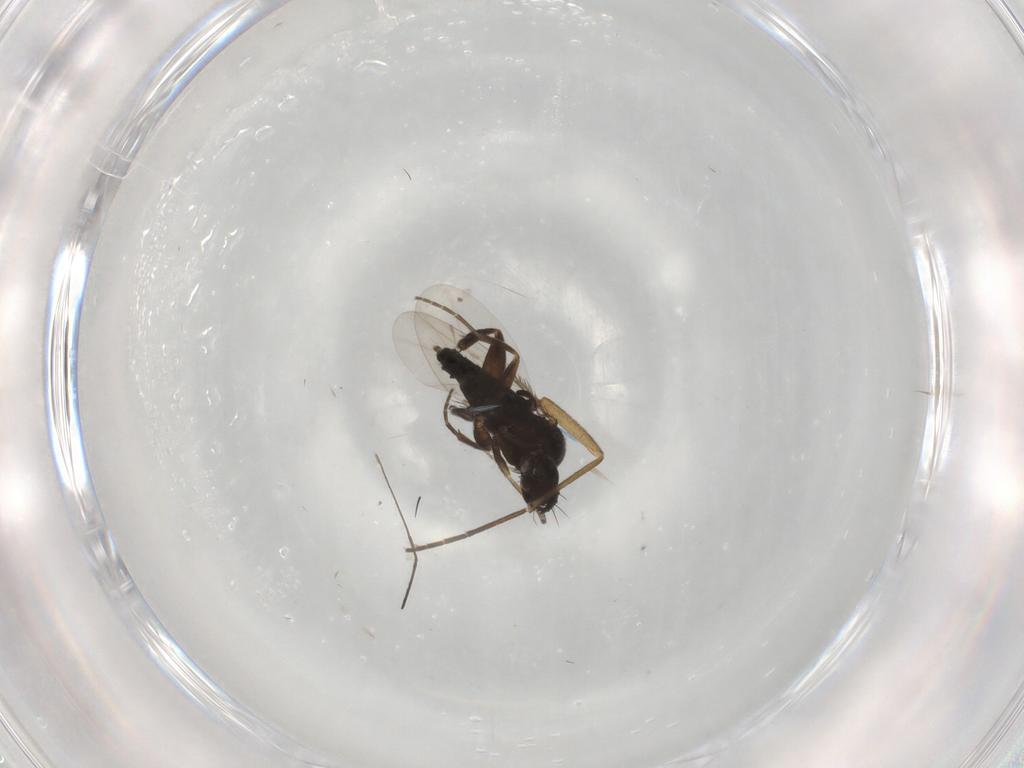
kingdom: Animalia
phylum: Arthropoda
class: Insecta
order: Diptera
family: Phoridae
